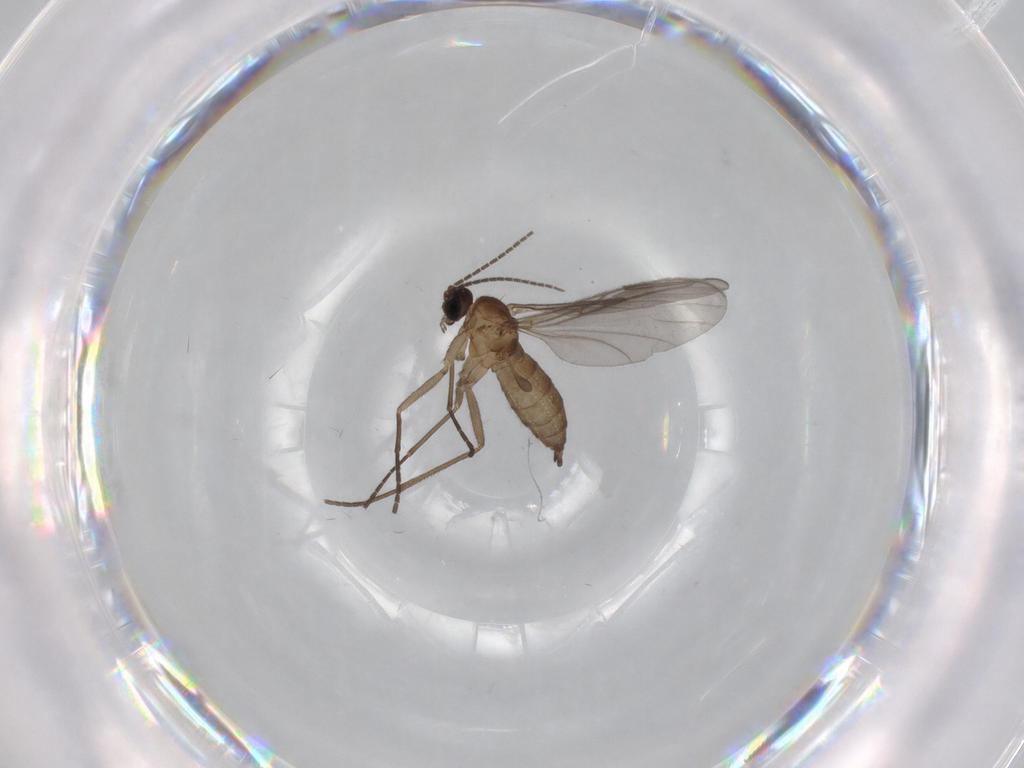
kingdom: Animalia
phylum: Arthropoda
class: Insecta
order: Diptera
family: Sciaridae
